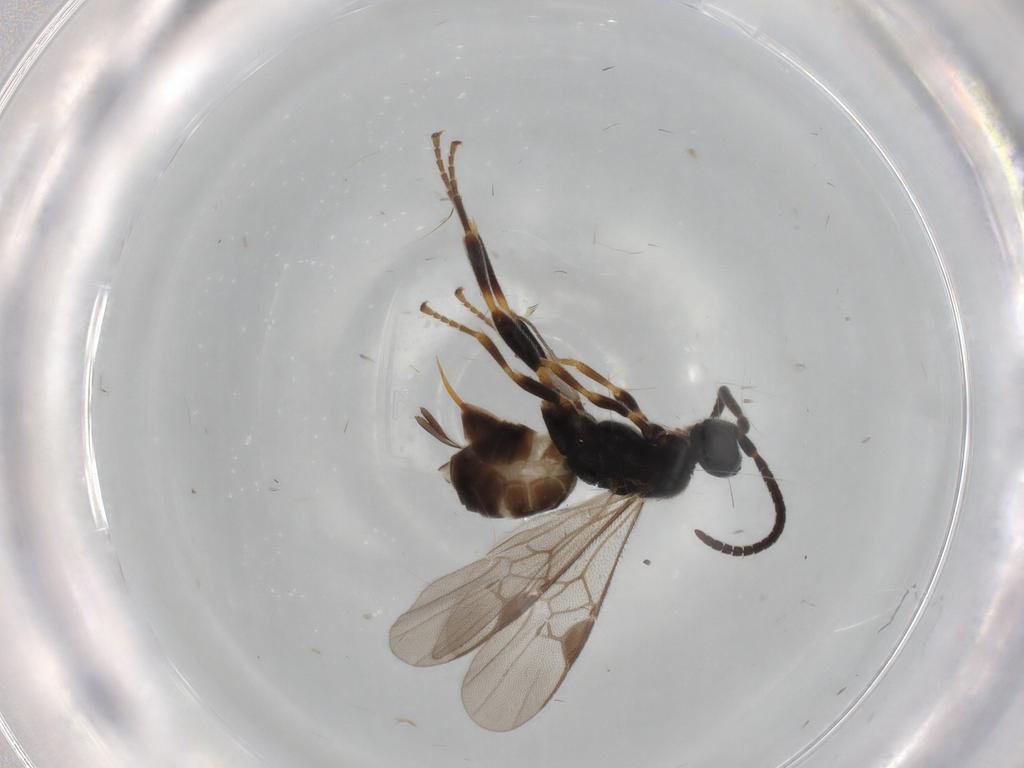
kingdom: Animalia
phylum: Arthropoda
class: Insecta
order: Hymenoptera
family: Braconidae
